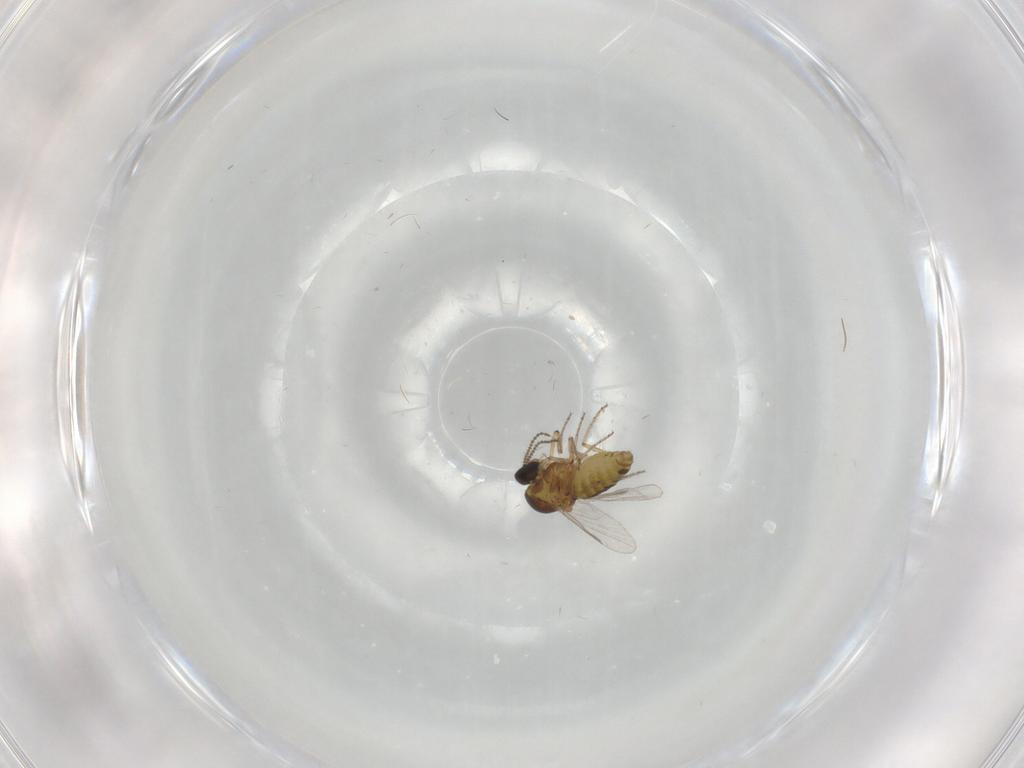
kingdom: Animalia
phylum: Arthropoda
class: Insecta
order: Diptera
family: Ceratopogonidae
